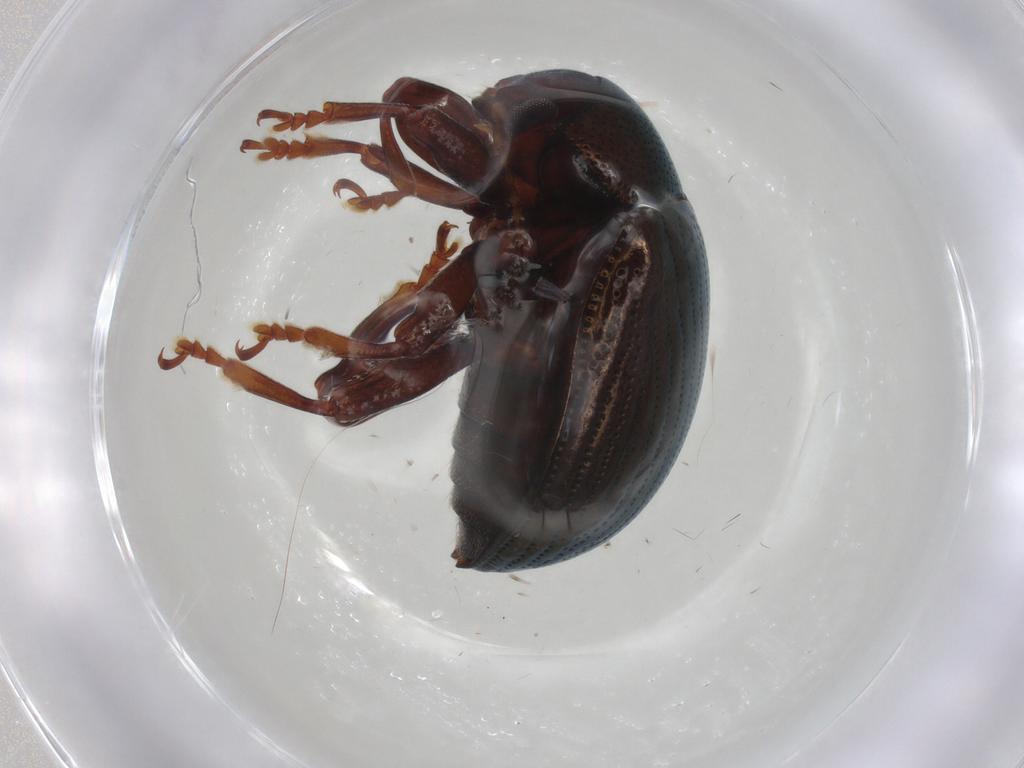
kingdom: Animalia
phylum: Arthropoda
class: Insecta
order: Coleoptera
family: Chrysomelidae
